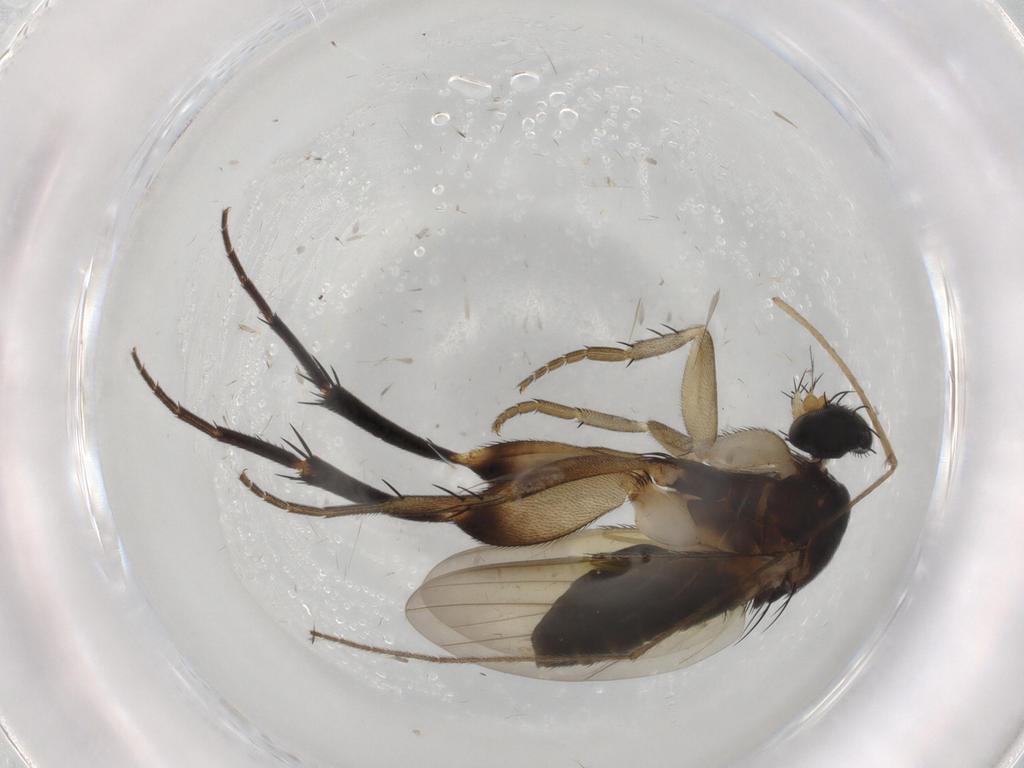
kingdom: Animalia
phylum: Arthropoda
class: Insecta
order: Diptera
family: Phoridae
